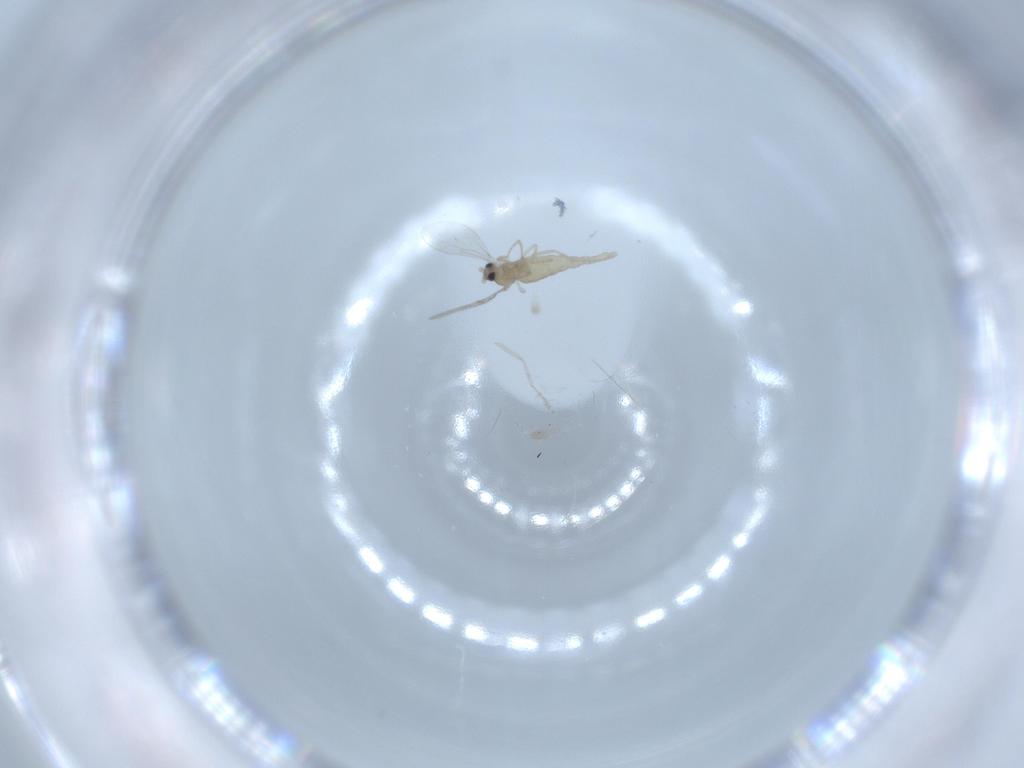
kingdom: Animalia
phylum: Arthropoda
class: Insecta
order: Diptera
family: Chironomidae
